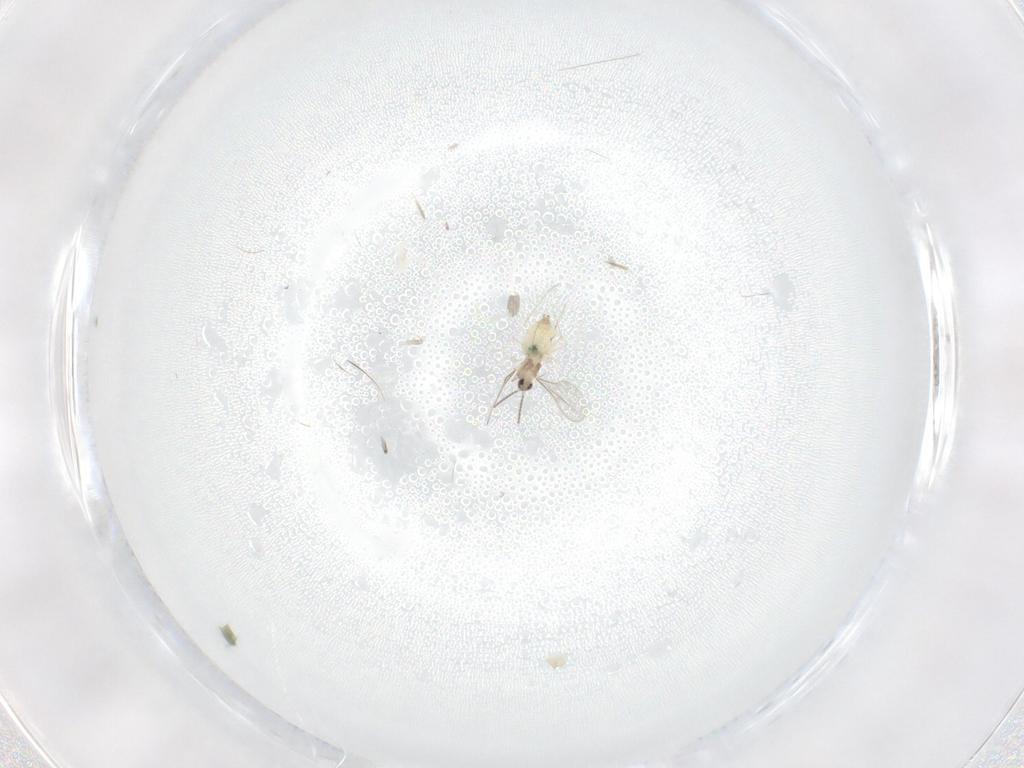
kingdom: Animalia
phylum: Arthropoda
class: Insecta
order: Diptera
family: Cecidomyiidae
